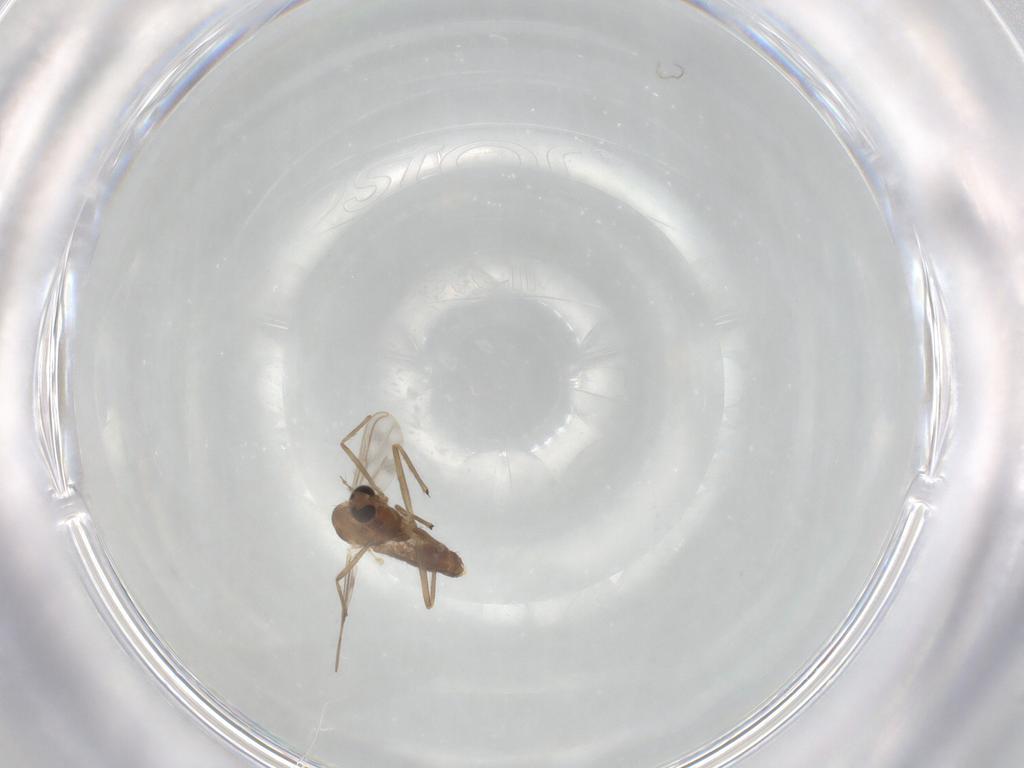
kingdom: Animalia
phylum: Arthropoda
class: Insecta
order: Diptera
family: Chironomidae
